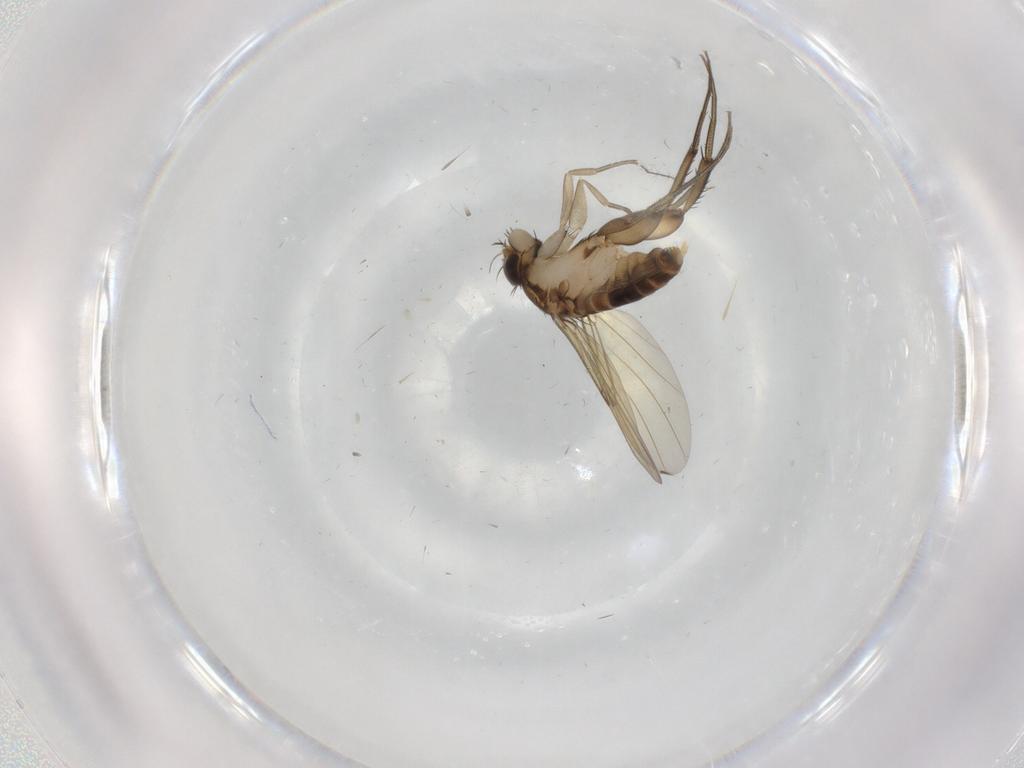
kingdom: Animalia
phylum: Arthropoda
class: Insecta
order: Diptera
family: Phoridae
